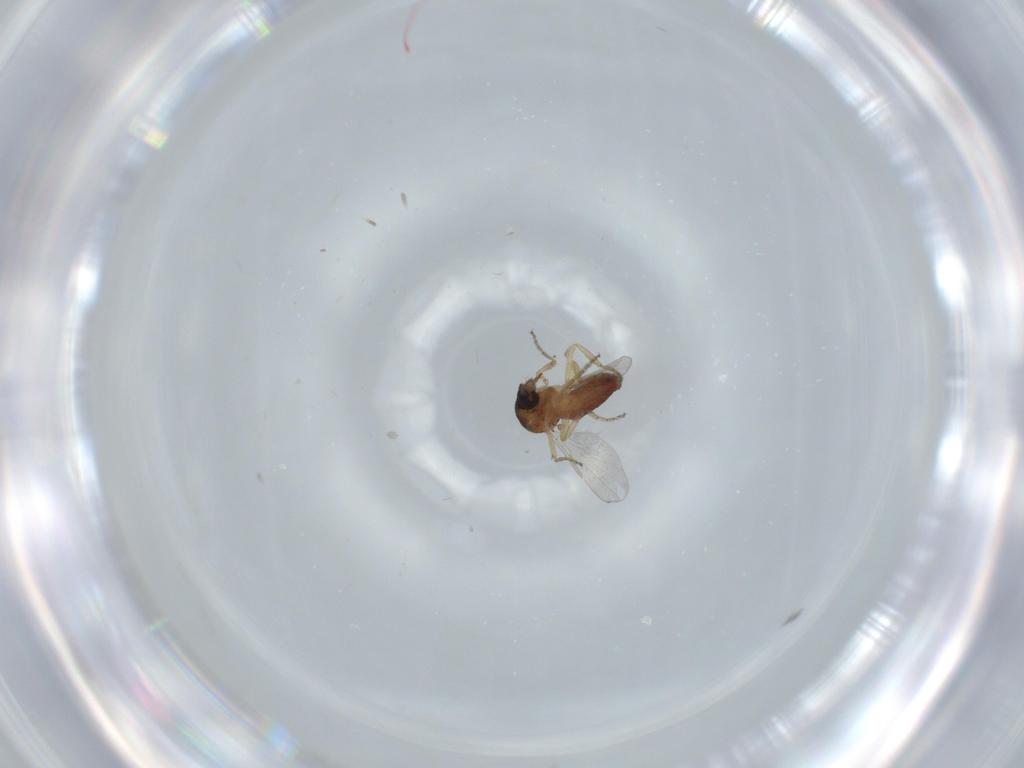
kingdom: Animalia
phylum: Arthropoda
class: Insecta
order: Diptera
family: Ceratopogonidae
